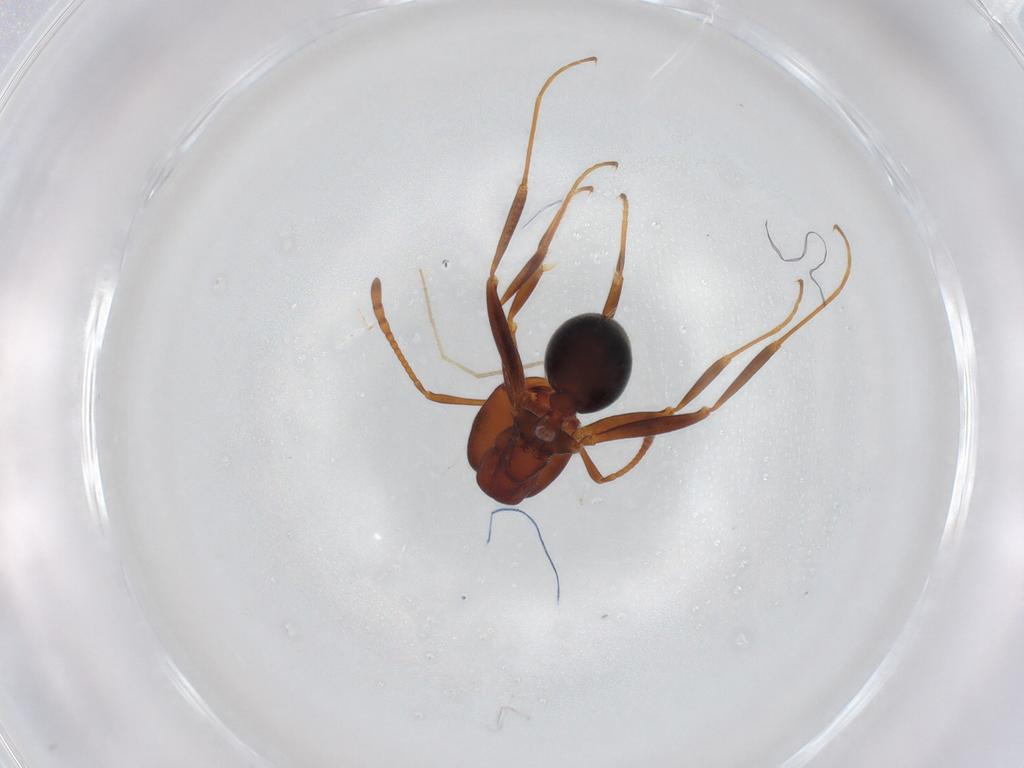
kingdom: Animalia
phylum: Arthropoda
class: Insecta
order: Hymenoptera
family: Formicidae
